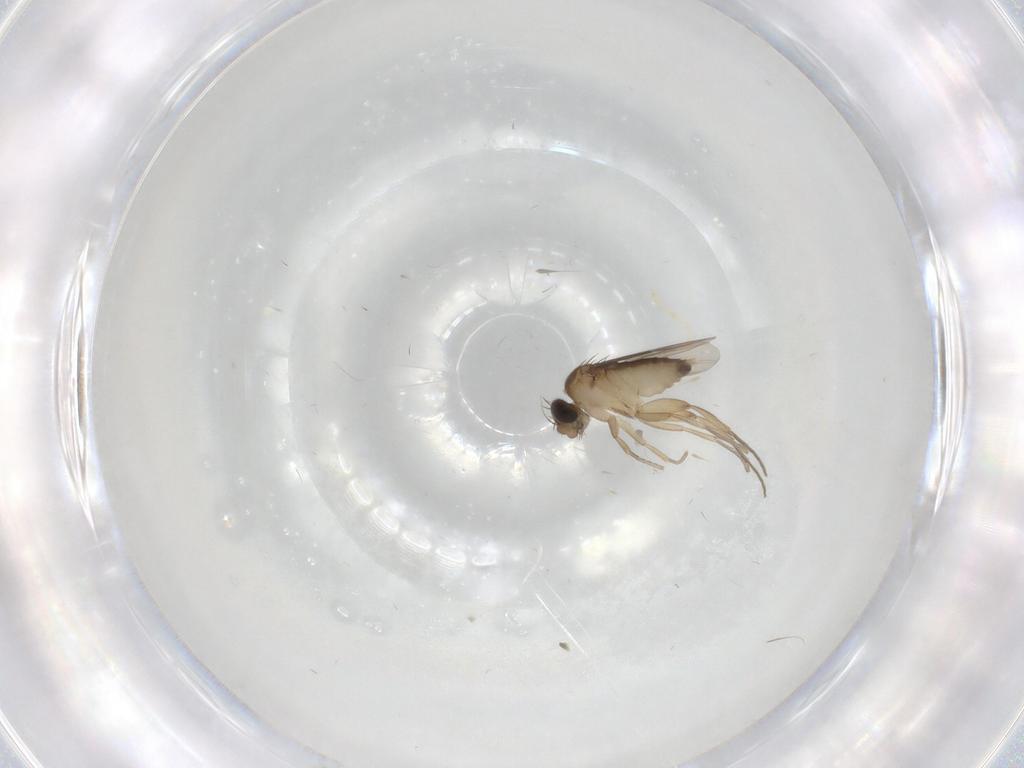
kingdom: Animalia
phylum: Arthropoda
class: Insecta
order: Diptera
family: Phoridae
